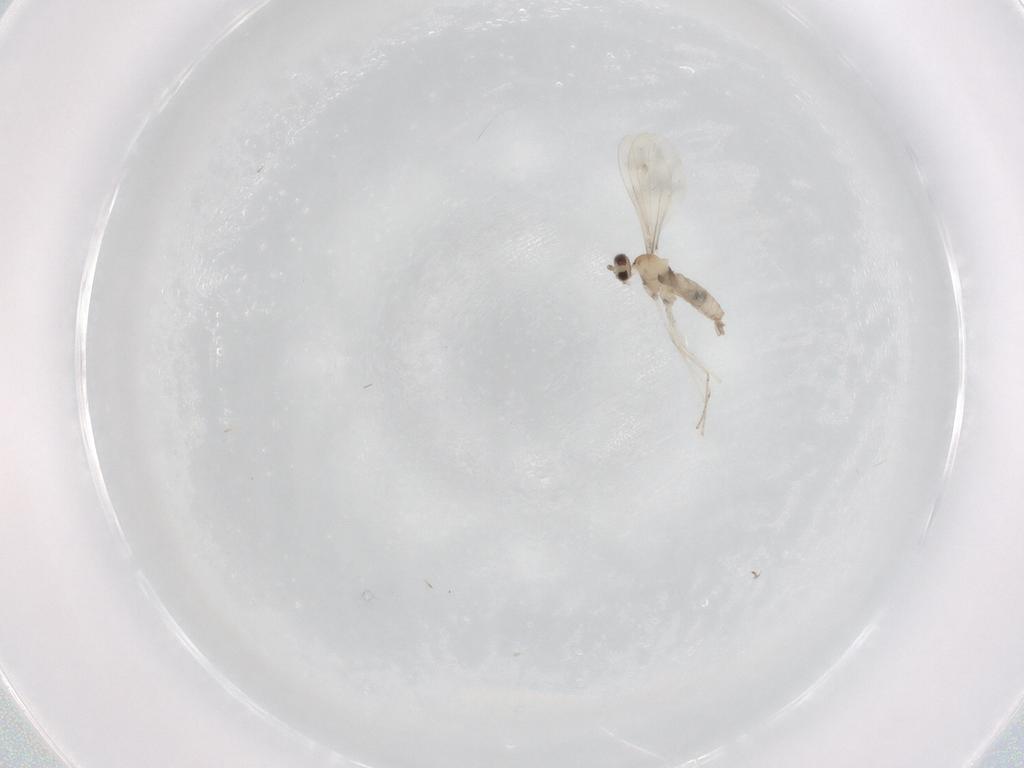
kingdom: Animalia
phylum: Arthropoda
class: Insecta
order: Diptera
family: Cecidomyiidae
